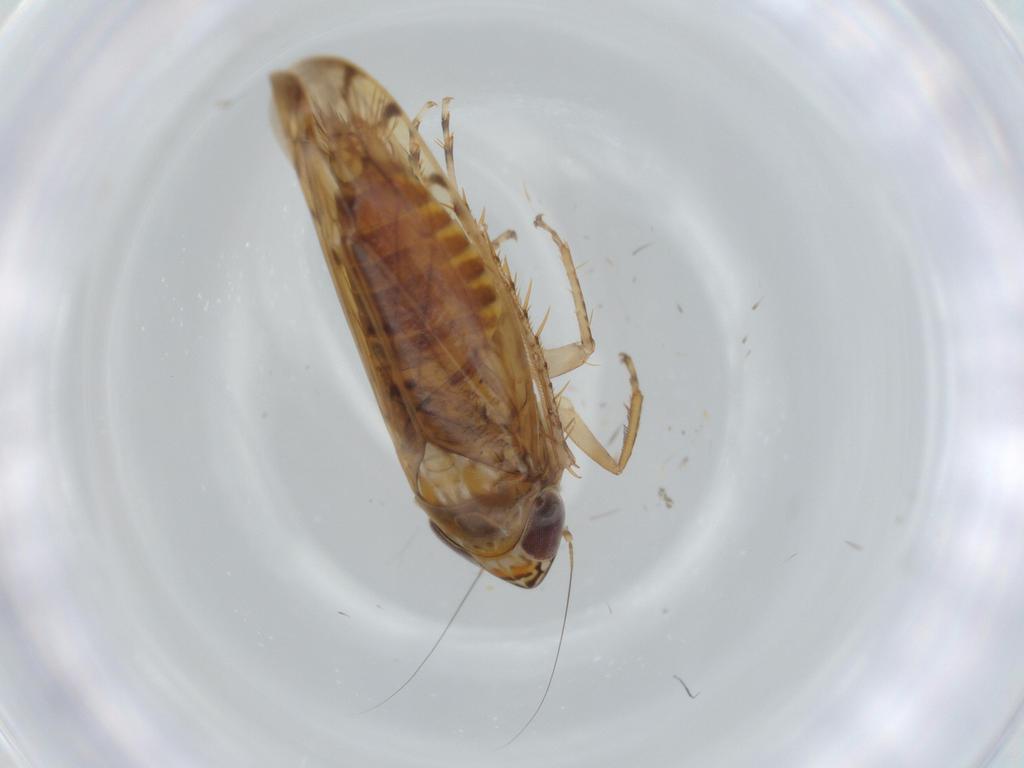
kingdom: Animalia
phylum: Arthropoda
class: Insecta
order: Hemiptera
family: Cicadellidae
